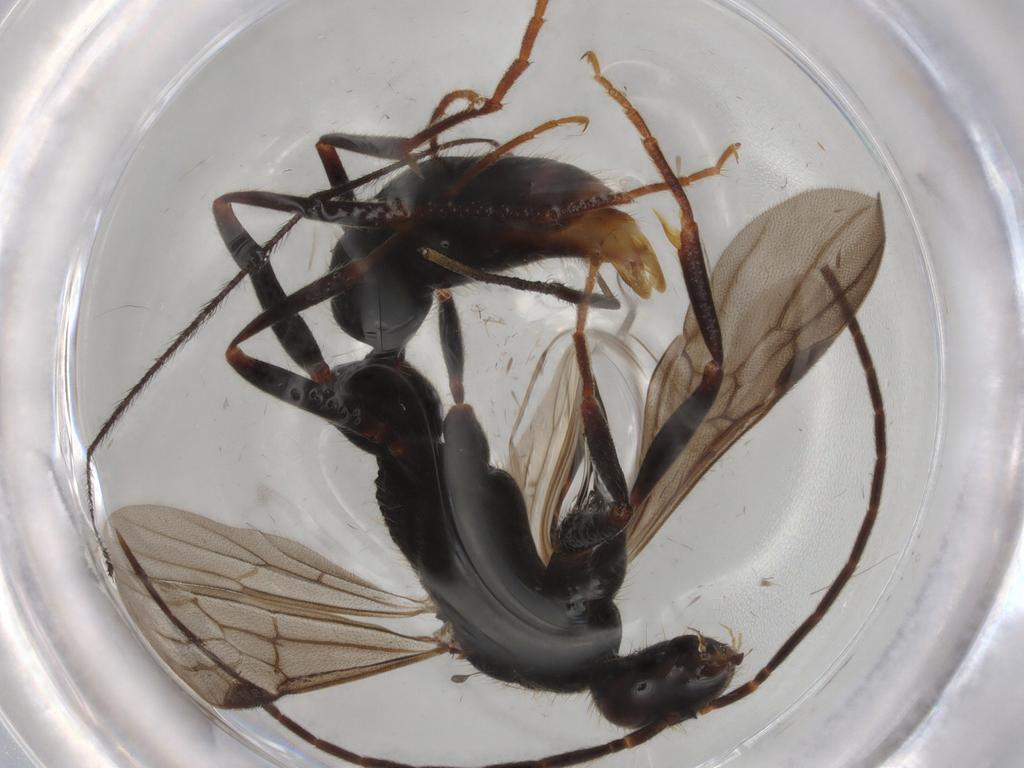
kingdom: Animalia
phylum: Arthropoda
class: Insecta
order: Hymenoptera
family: Formicidae
